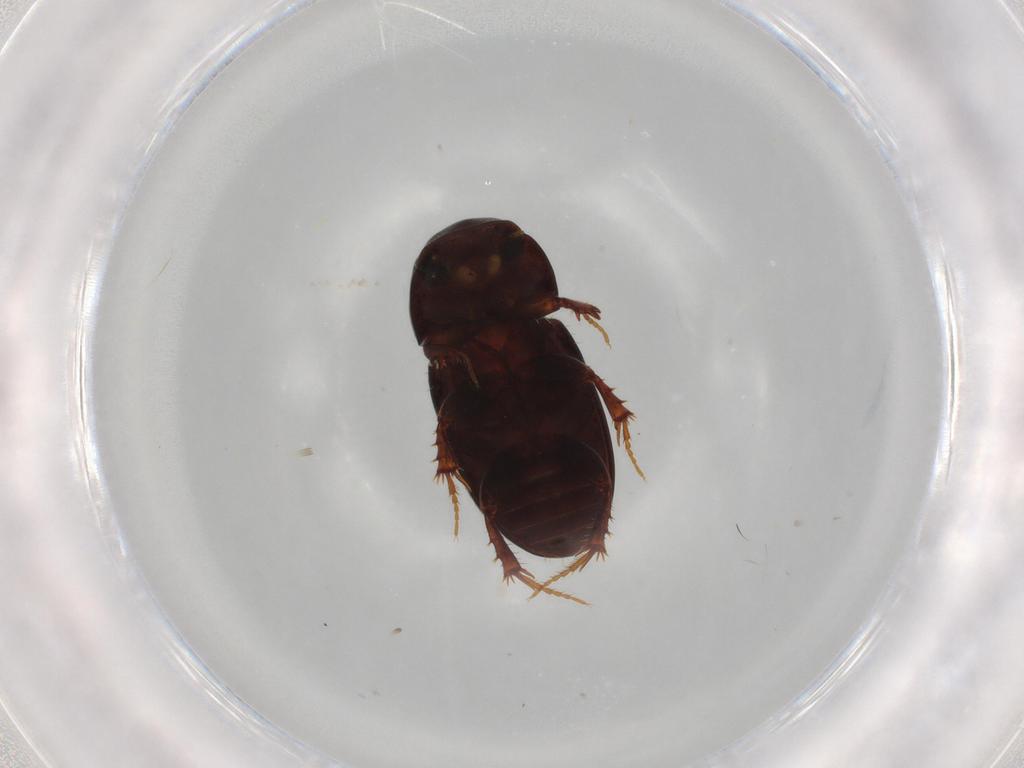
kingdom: Animalia
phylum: Arthropoda
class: Insecta
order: Coleoptera
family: Scarabaeidae
